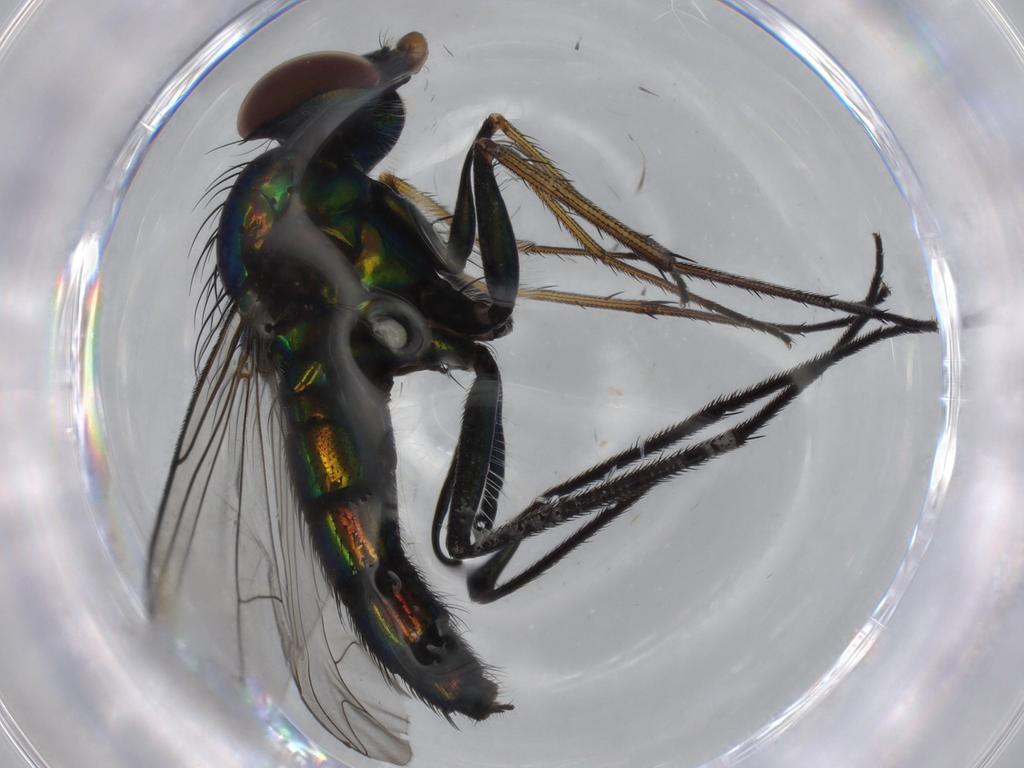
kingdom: Animalia
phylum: Arthropoda
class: Insecta
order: Diptera
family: Dolichopodidae
